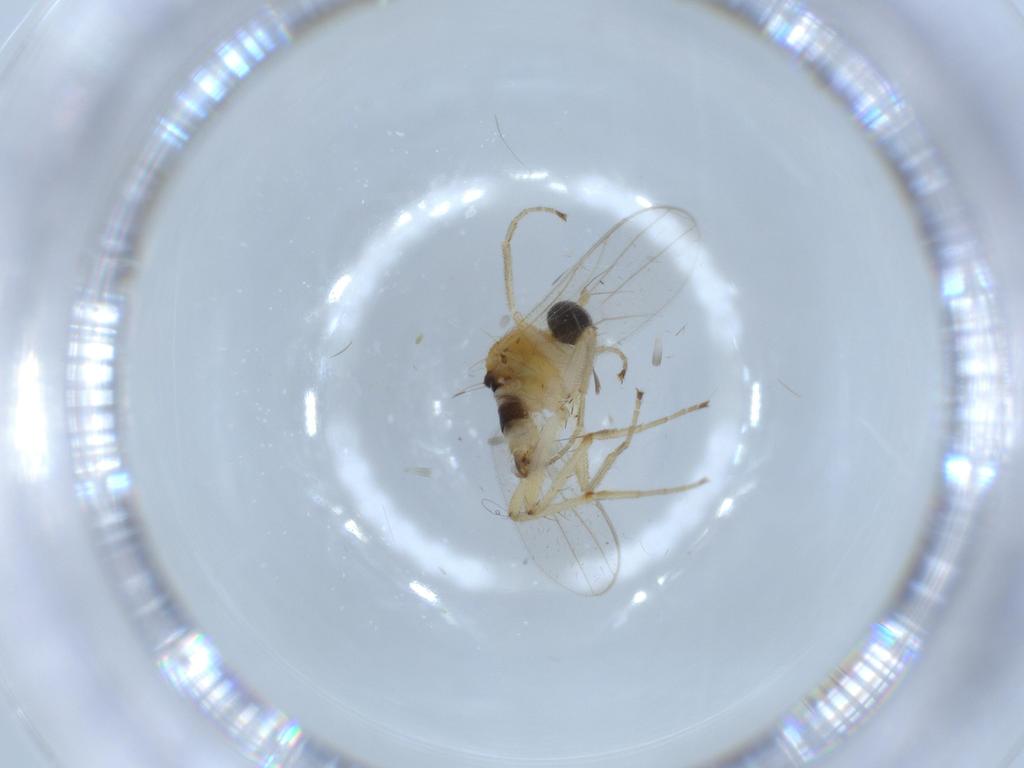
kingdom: Animalia
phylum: Arthropoda
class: Insecta
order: Diptera
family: Hybotidae
